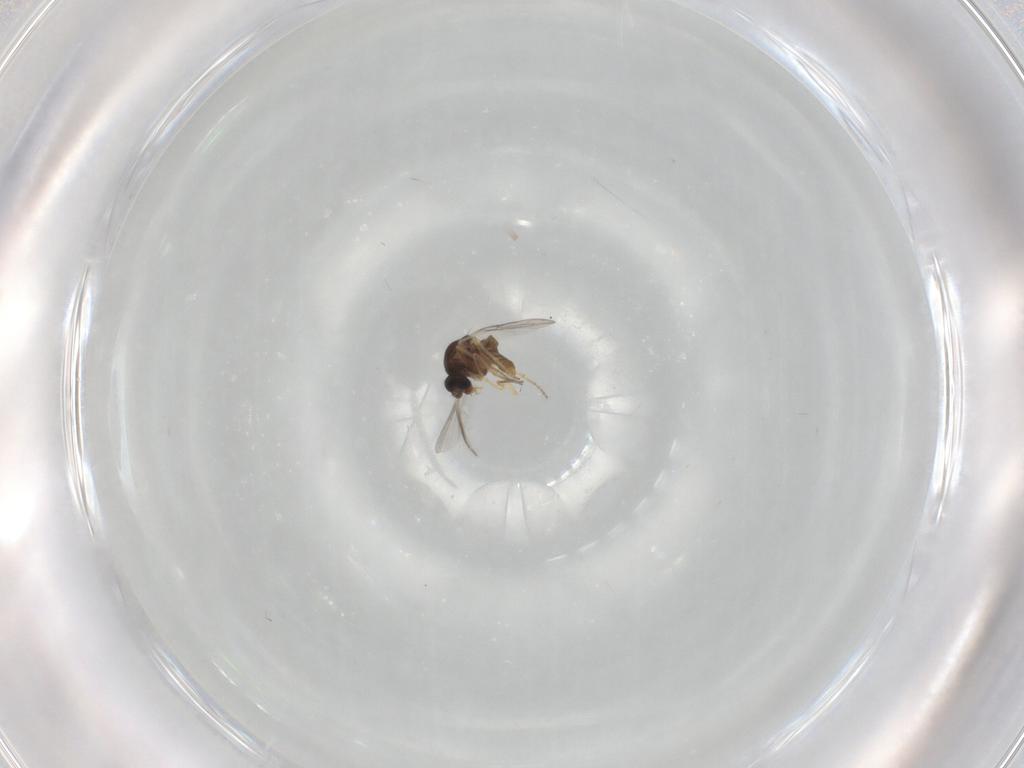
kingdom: Animalia
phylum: Arthropoda
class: Insecta
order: Diptera
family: Ceratopogonidae
